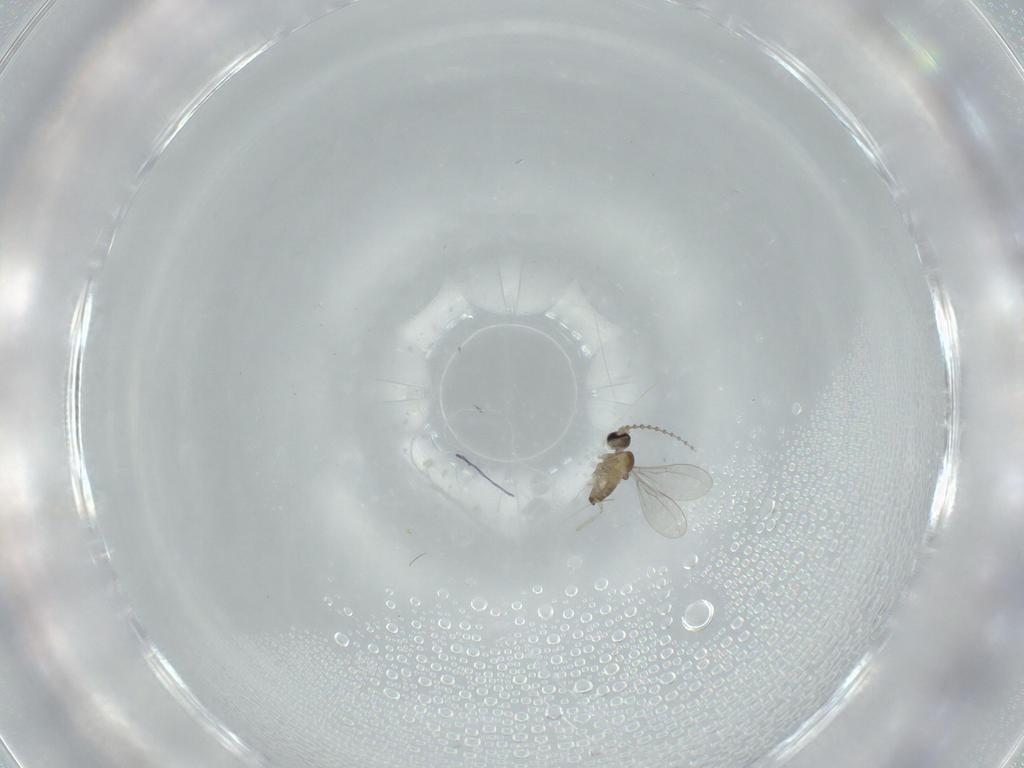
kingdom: Animalia
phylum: Arthropoda
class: Insecta
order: Diptera
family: Cecidomyiidae
